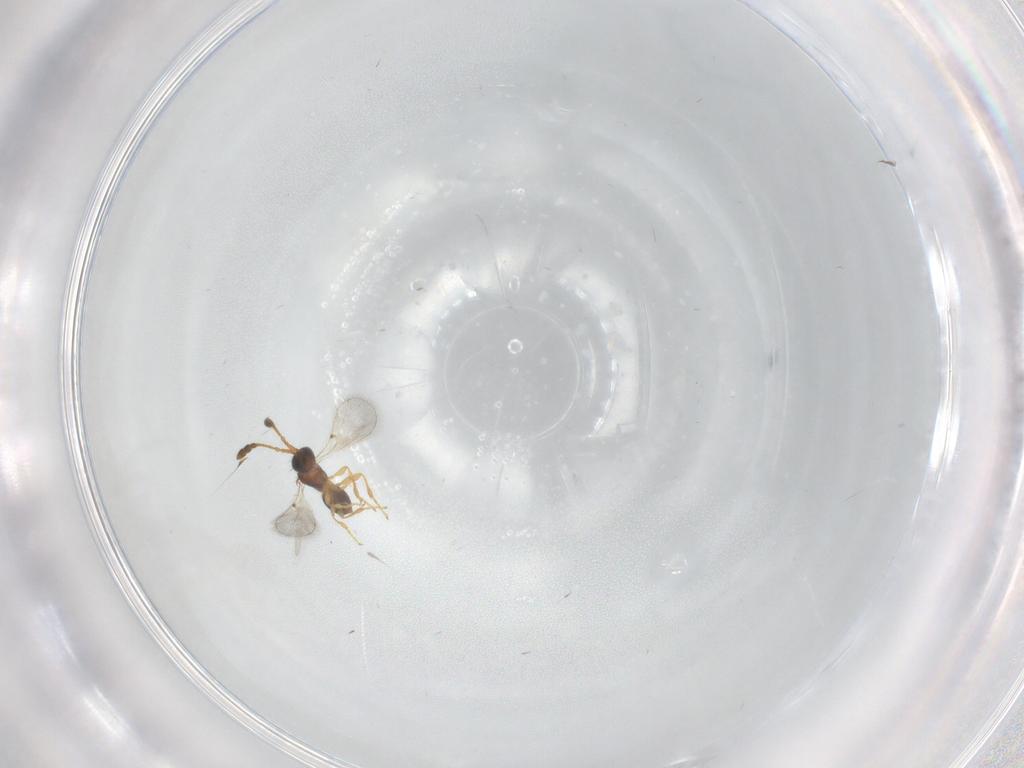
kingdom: Animalia
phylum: Arthropoda
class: Insecta
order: Hymenoptera
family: Diapriidae
